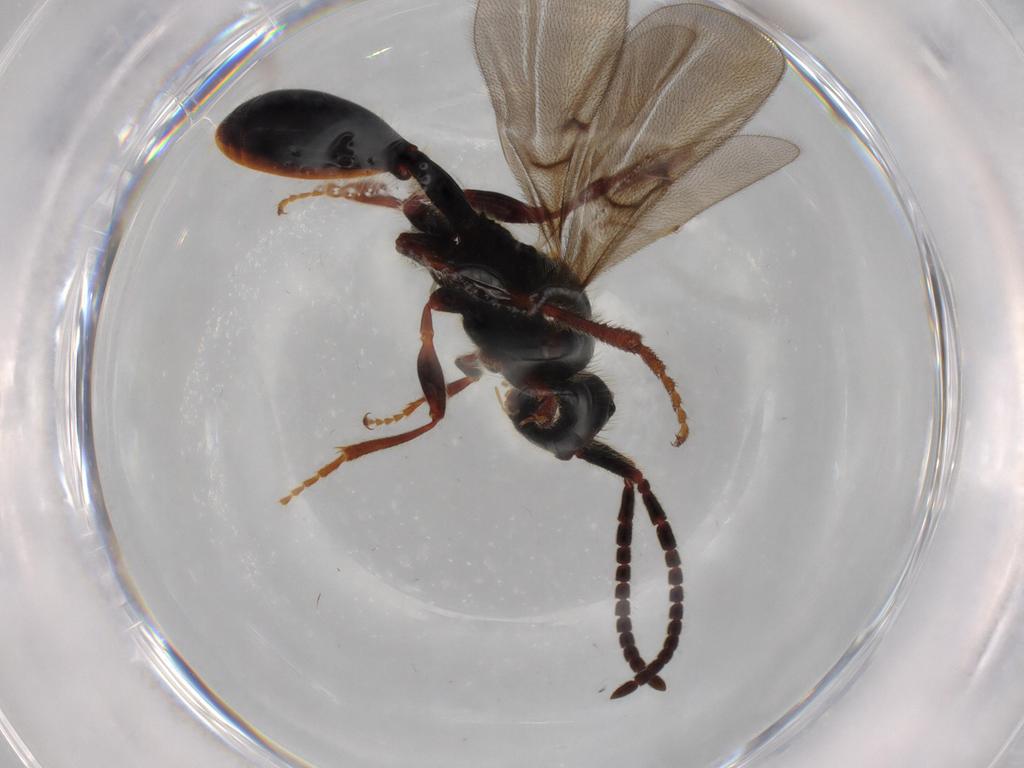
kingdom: Animalia
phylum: Arthropoda
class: Insecta
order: Hymenoptera
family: Diapriidae
